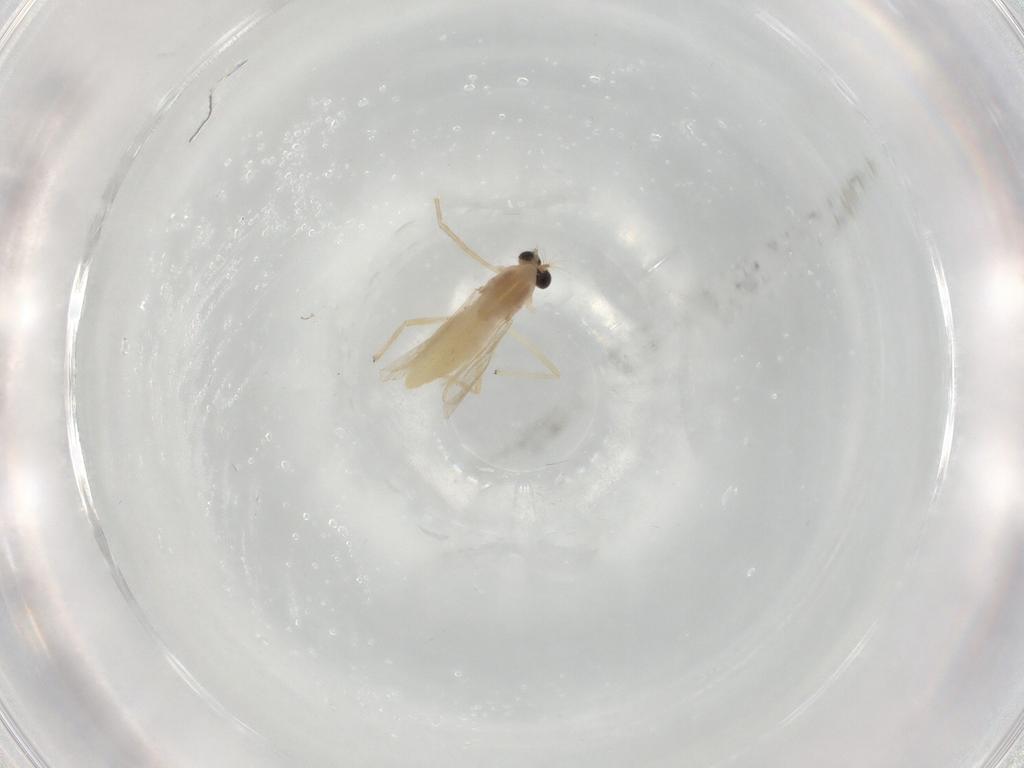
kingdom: Animalia
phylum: Arthropoda
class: Insecta
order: Diptera
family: Chironomidae
